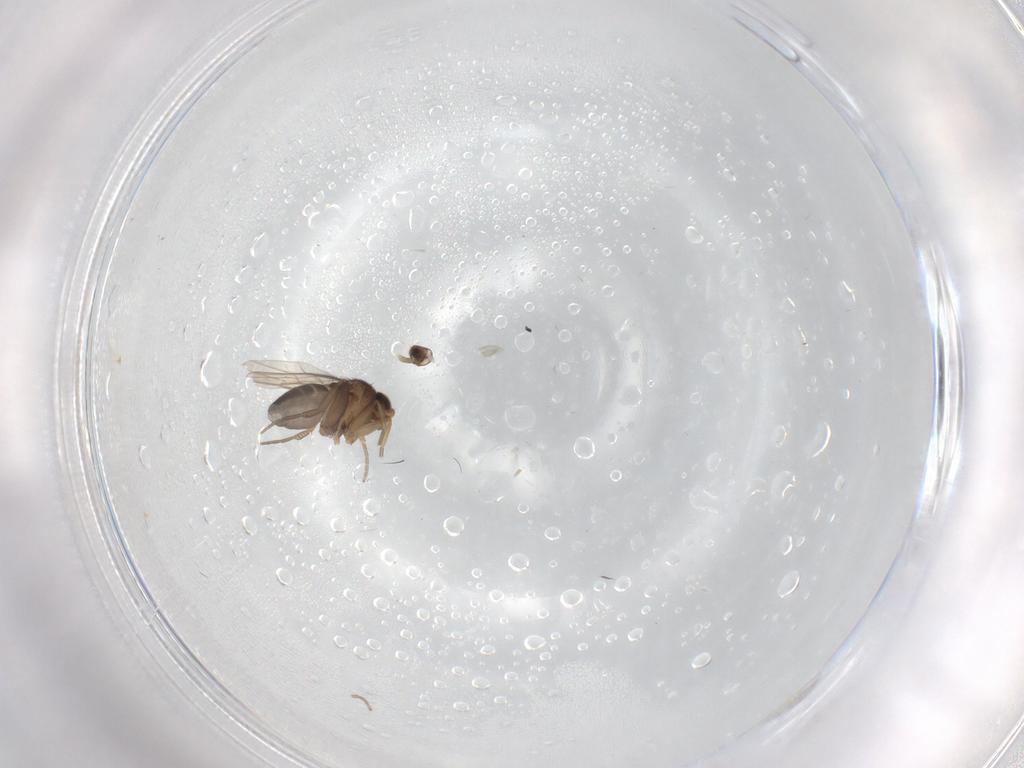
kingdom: Animalia
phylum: Arthropoda
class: Insecta
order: Diptera
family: Phoridae
